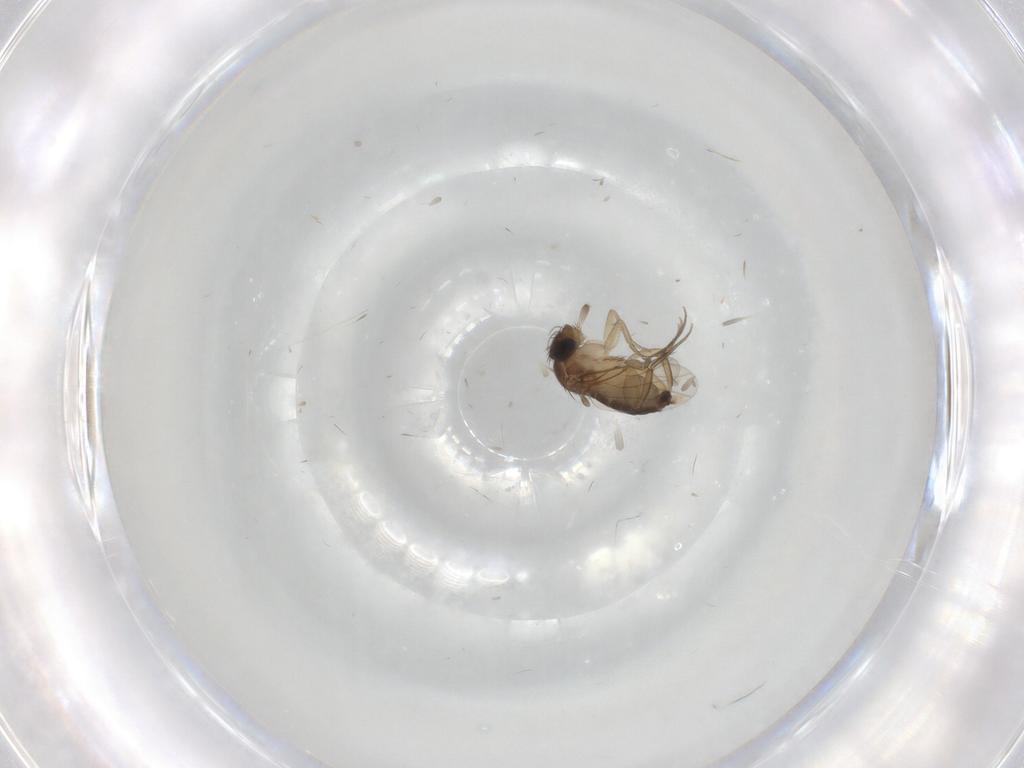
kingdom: Animalia
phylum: Arthropoda
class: Insecta
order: Diptera
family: Phoridae
